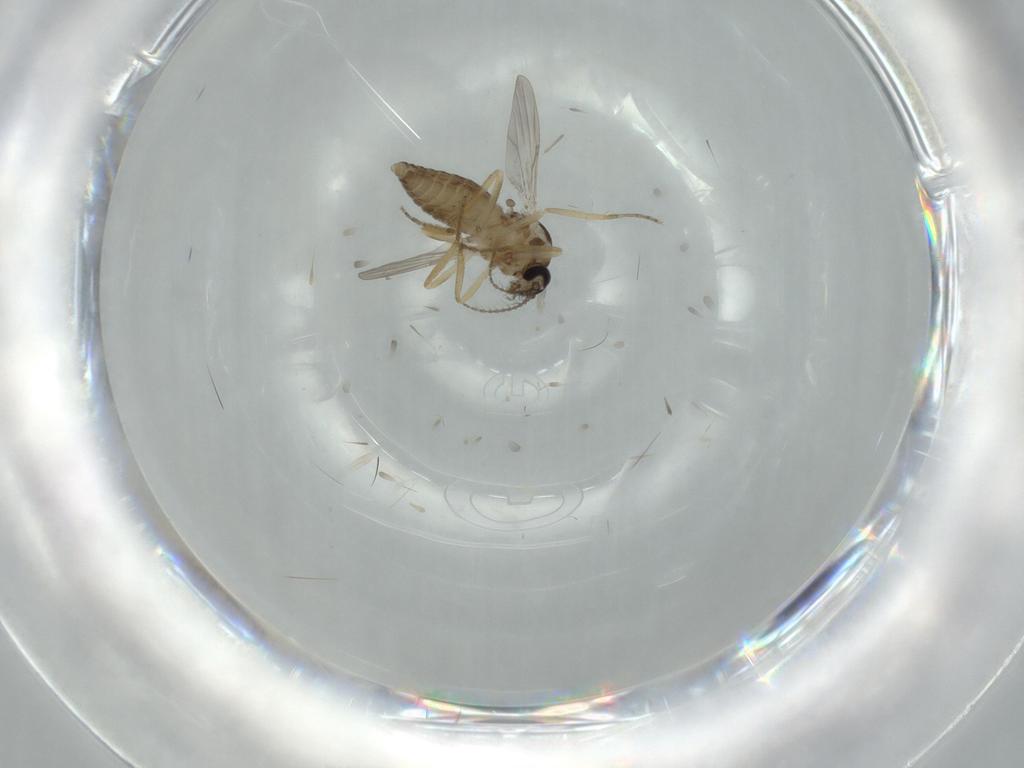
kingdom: Animalia
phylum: Arthropoda
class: Insecta
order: Diptera
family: Ceratopogonidae
